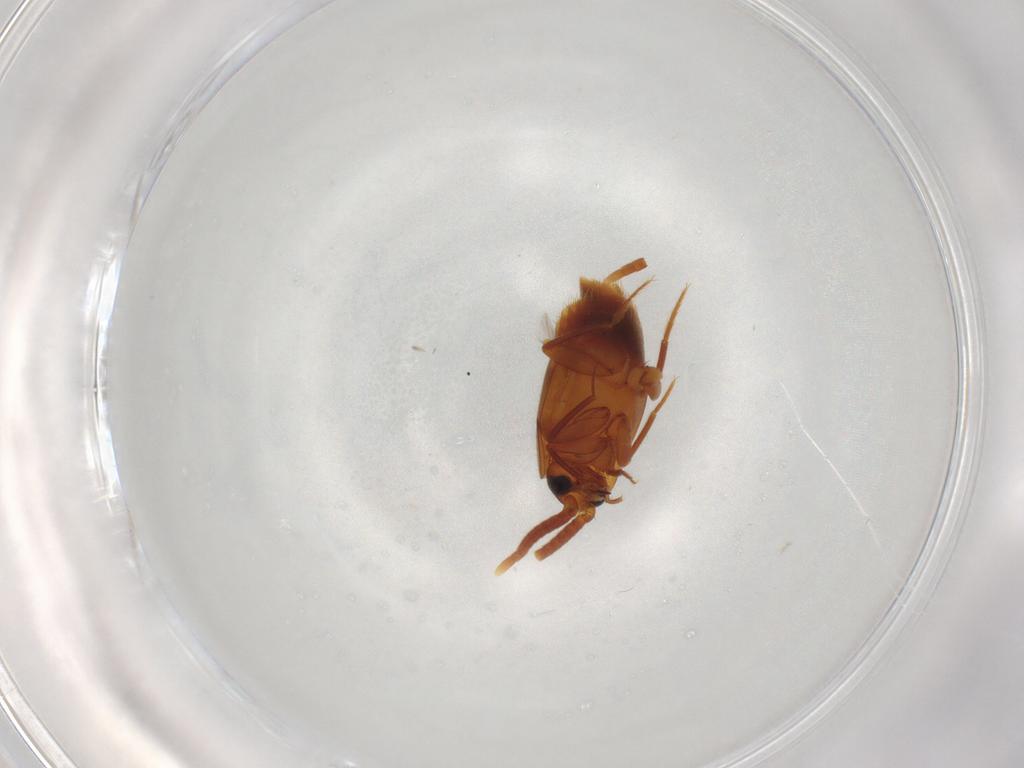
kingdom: Animalia
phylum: Arthropoda
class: Insecta
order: Coleoptera
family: Staphylinidae
